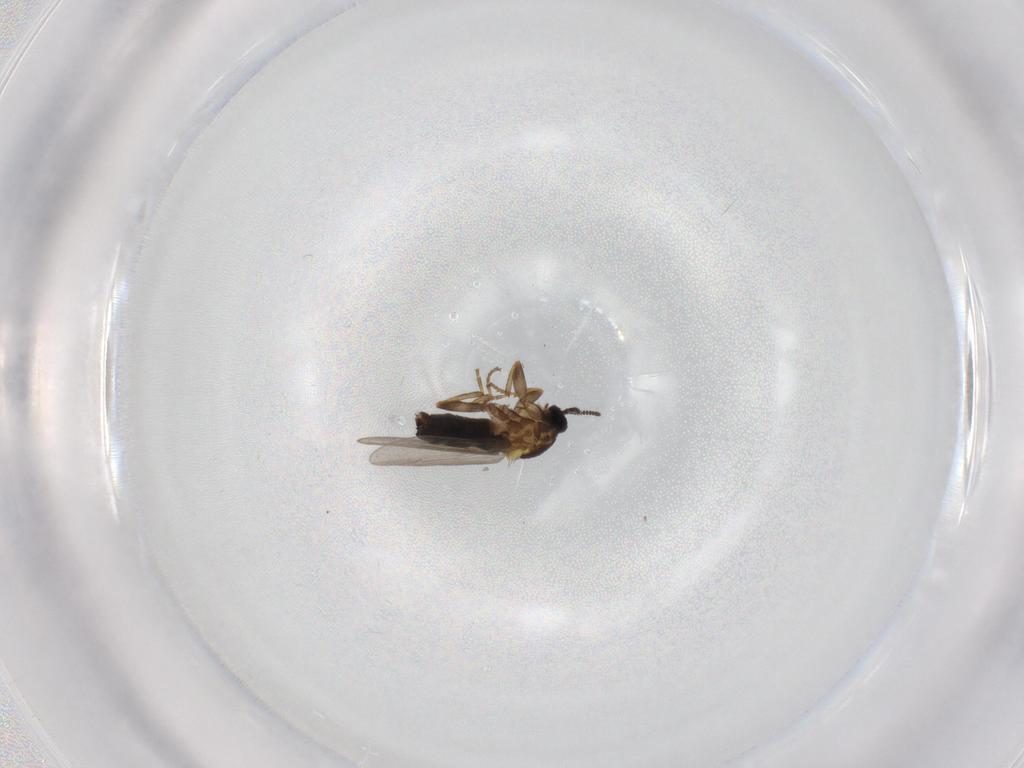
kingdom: Animalia
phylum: Arthropoda
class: Insecta
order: Diptera
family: Scatopsidae
